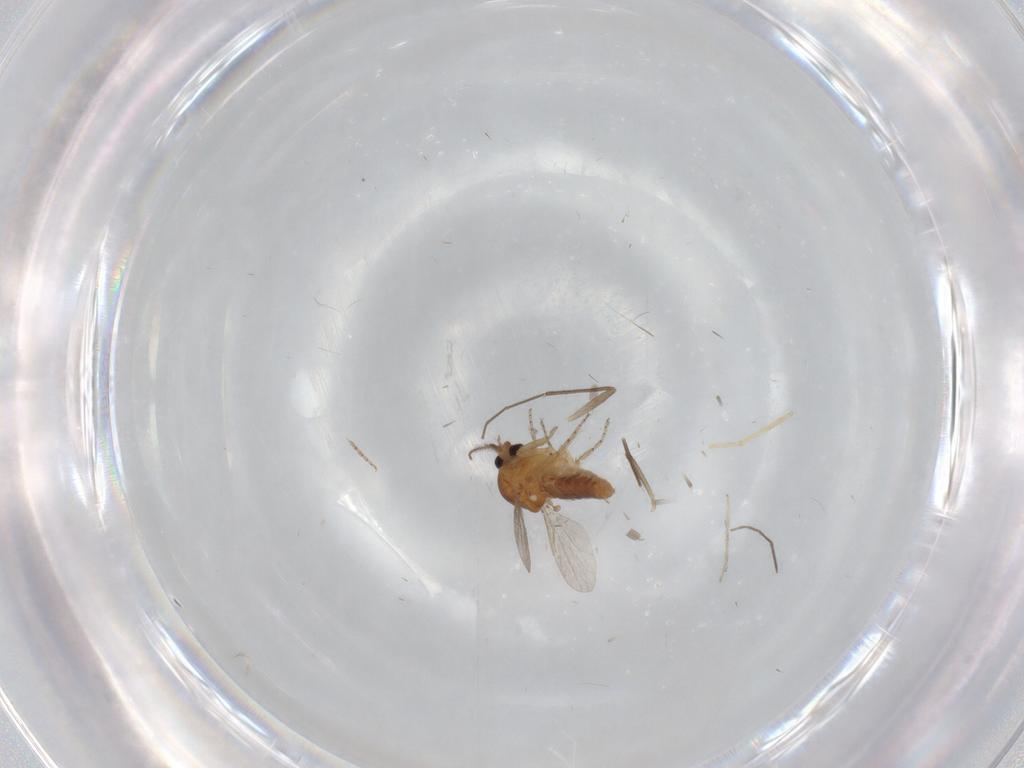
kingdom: Animalia
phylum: Arthropoda
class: Insecta
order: Diptera
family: Ceratopogonidae
